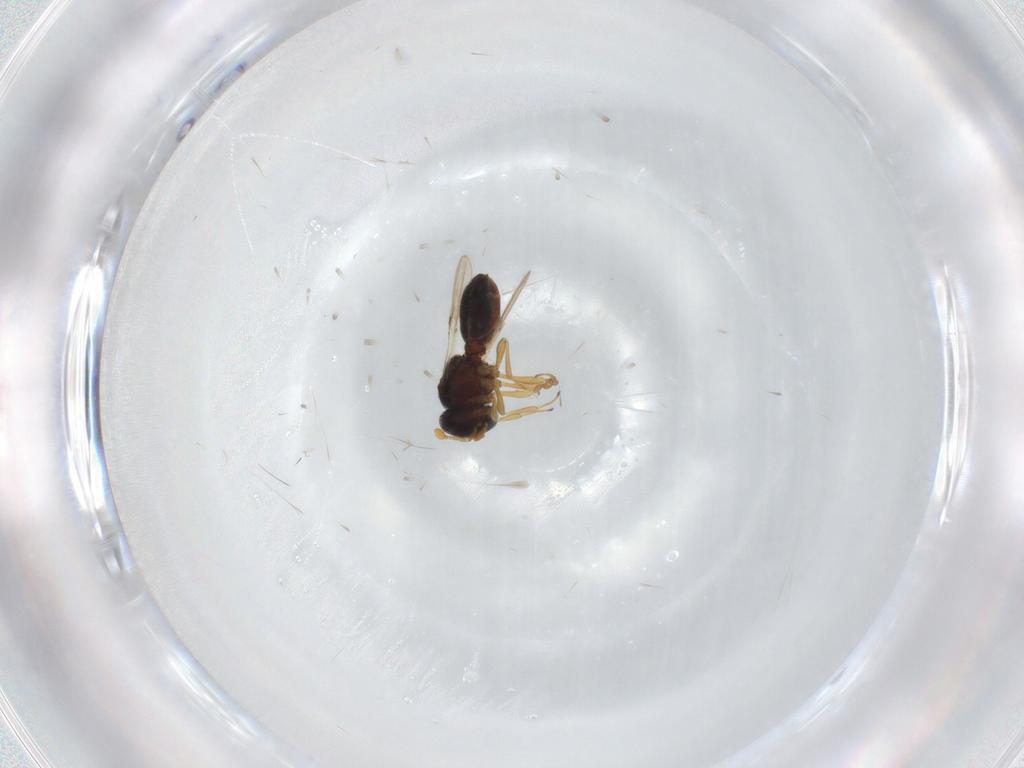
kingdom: Animalia
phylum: Arthropoda
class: Insecta
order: Hymenoptera
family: Scelionidae
